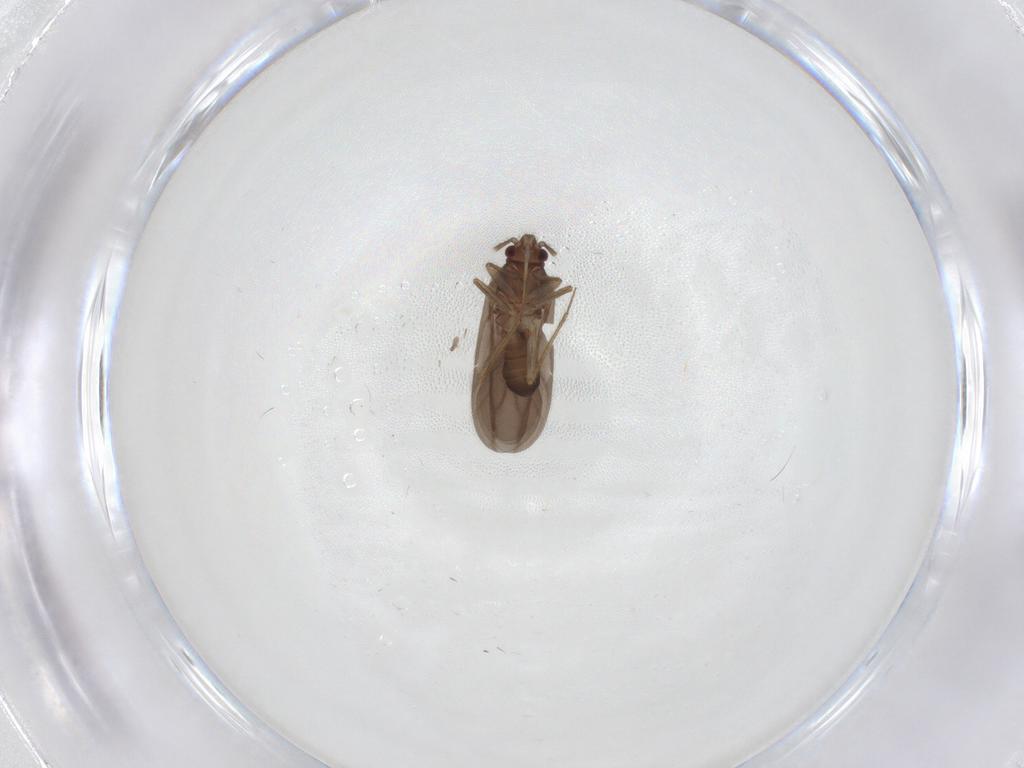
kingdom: Animalia
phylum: Arthropoda
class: Insecta
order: Hemiptera
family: Ceratocombidae
